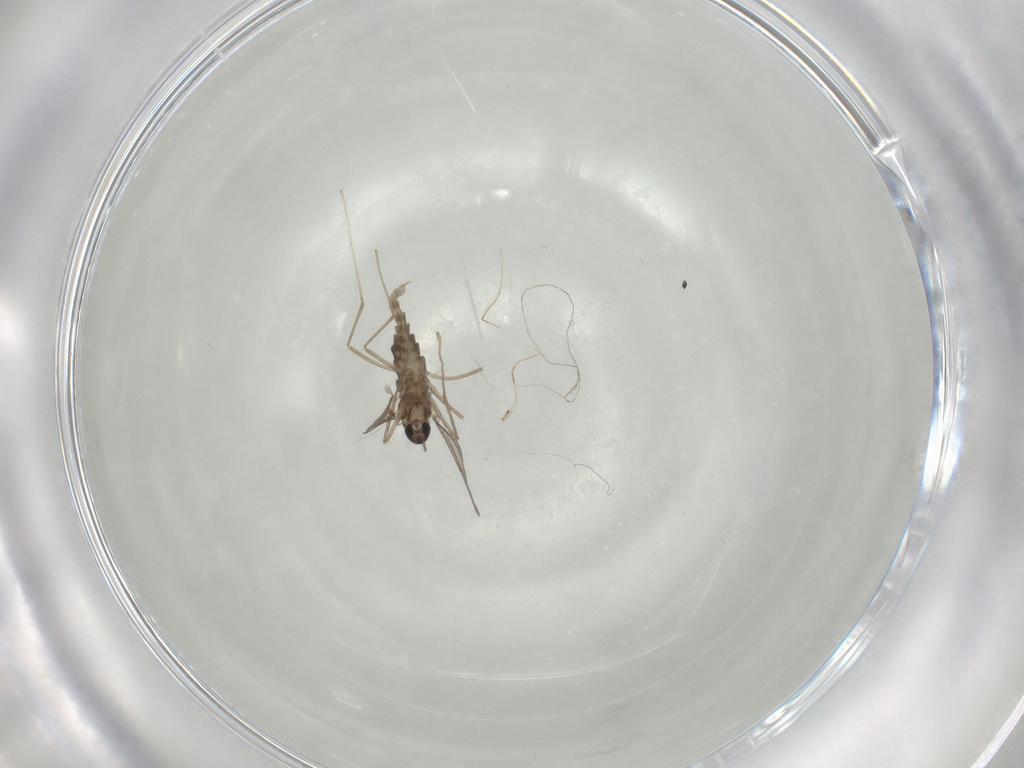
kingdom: Animalia
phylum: Arthropoda
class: Insecta
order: Diptera
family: Cecidomyiidae
